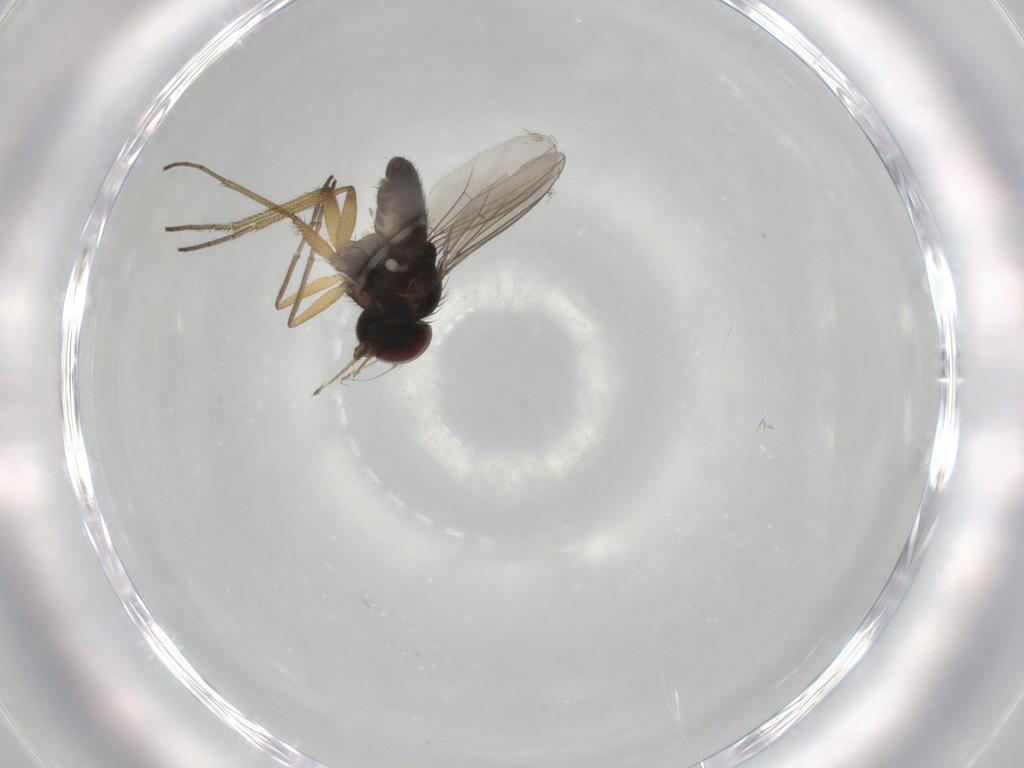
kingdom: Animalia
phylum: Arthropoda
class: Insecta
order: Diptera
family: Dolichopodidae
